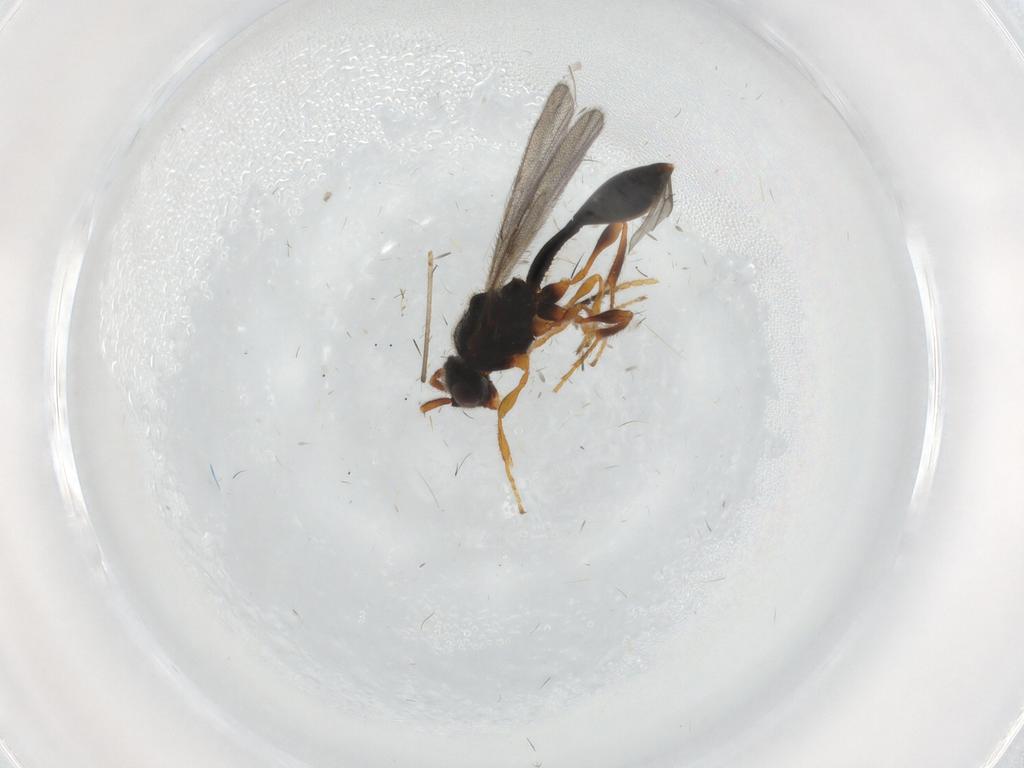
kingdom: Animalia
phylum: Arthropoda
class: Insecta
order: Hymenoptera
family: Diapriidae
